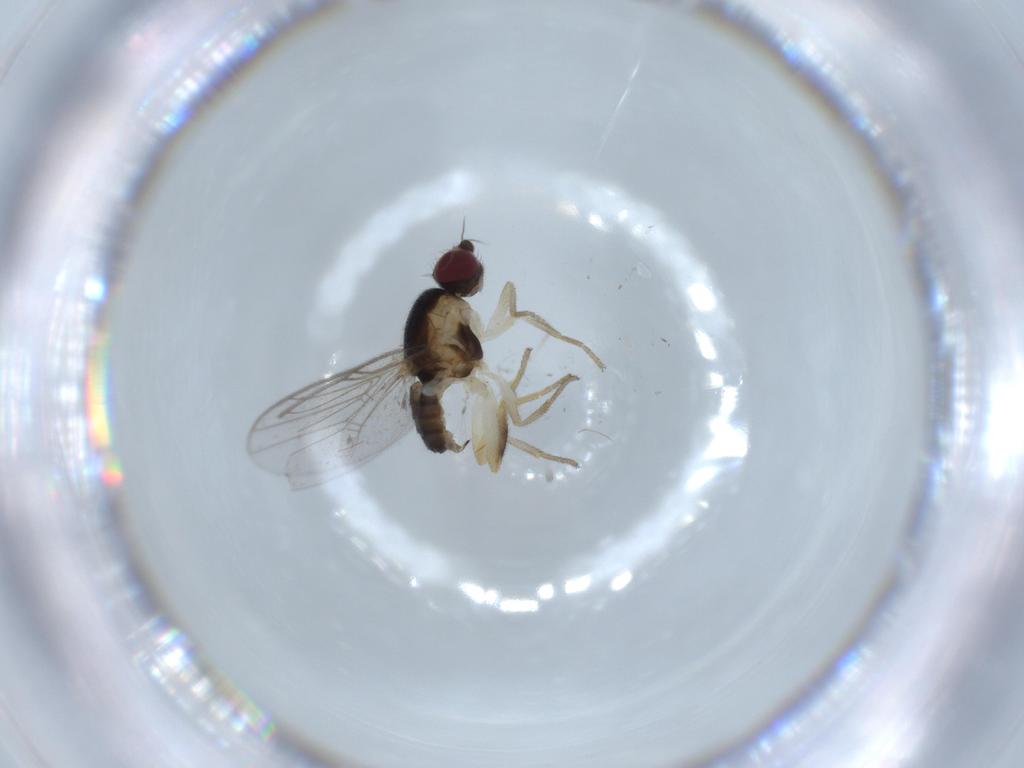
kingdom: Animalia
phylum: Arthropoda
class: Insecta
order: Diptera
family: Chloropidae
